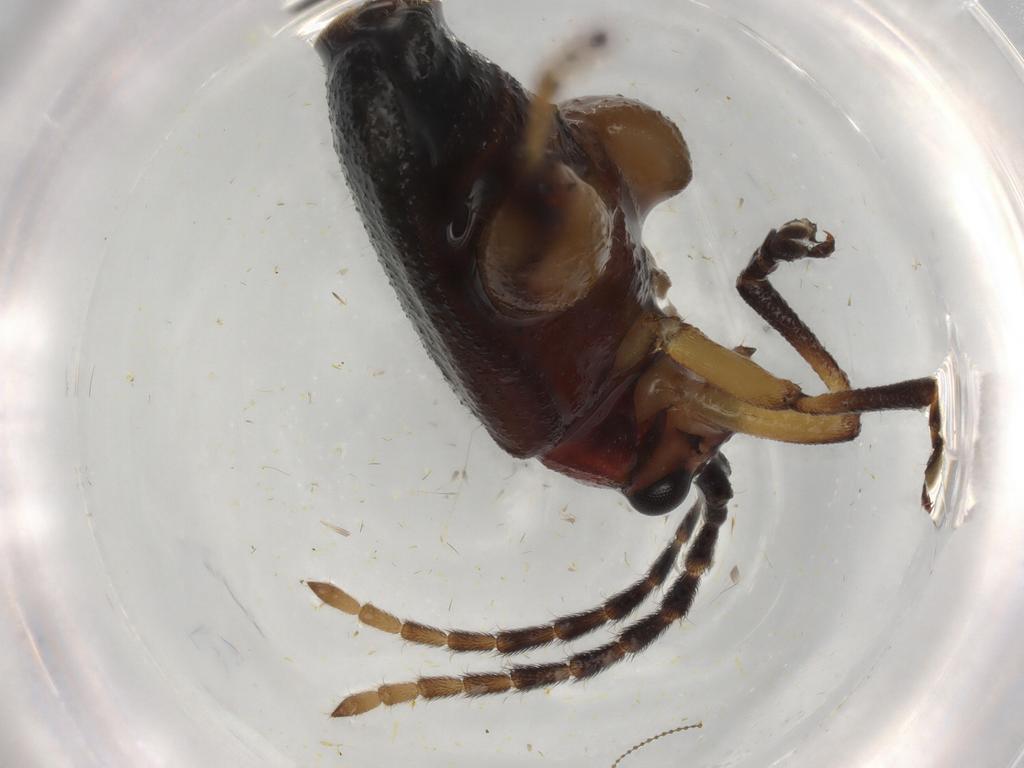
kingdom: Animalia
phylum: Arthropoda
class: Insecta
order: Coleoptera
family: Chrysomelidae
